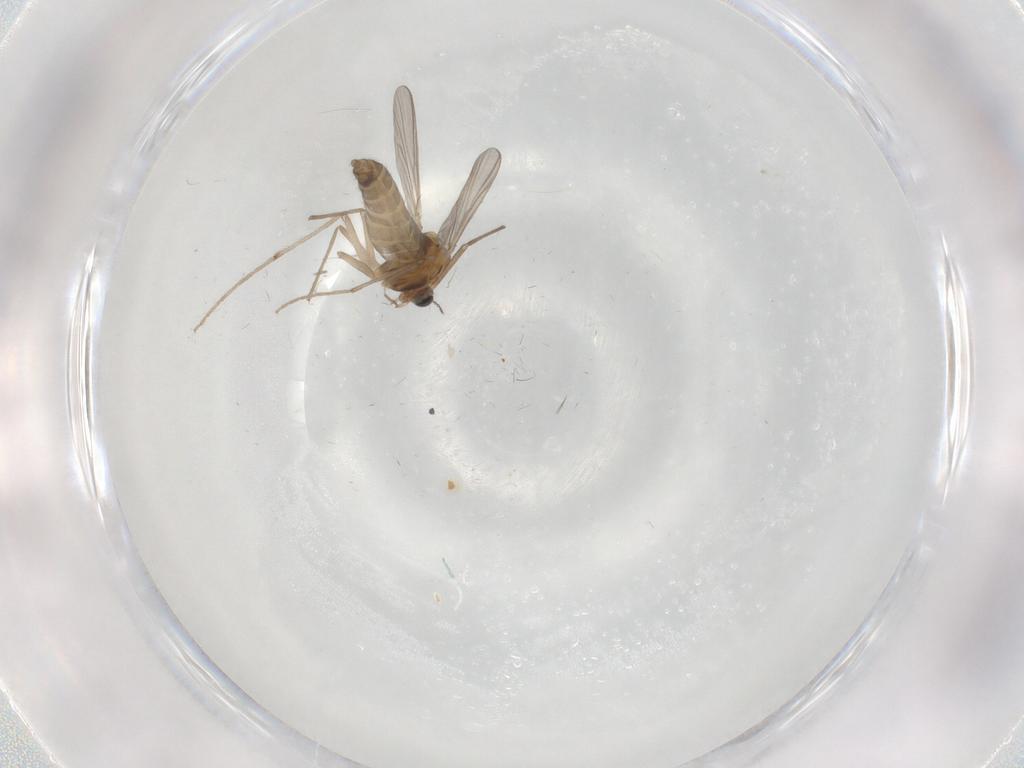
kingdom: Animalia
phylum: Arthropoda
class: Insecta
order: Diptera
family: Chironomidae
